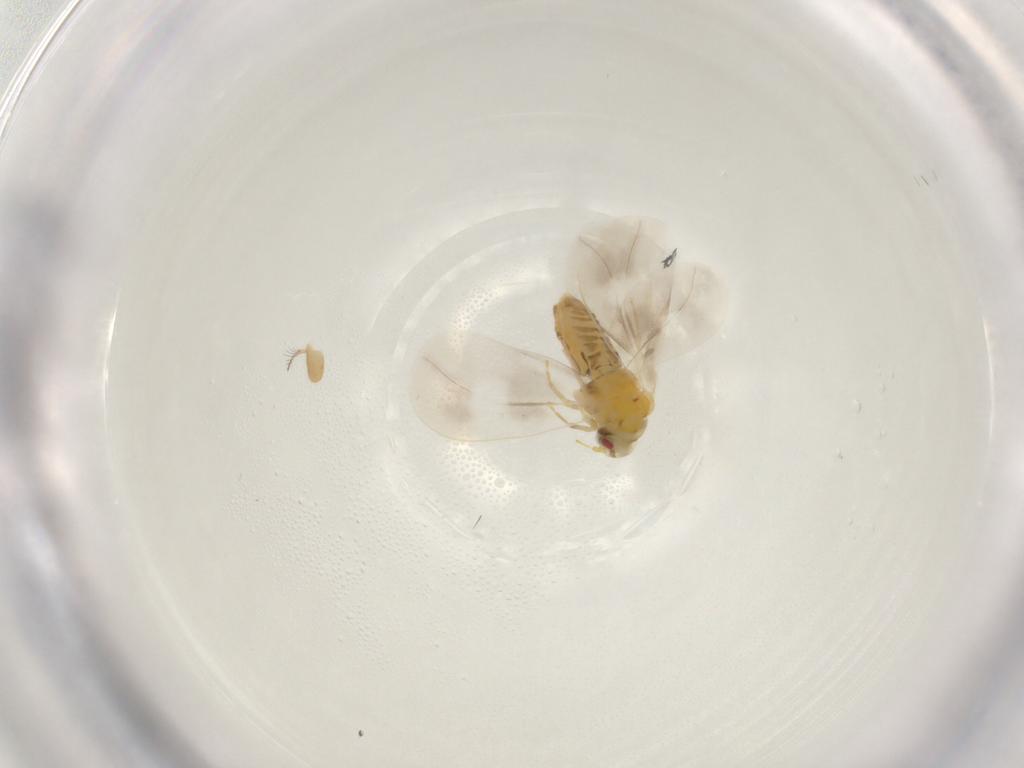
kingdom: Animalia
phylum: Arthropoda
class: Insecta
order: Hemiptera
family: Aleyrodidae
